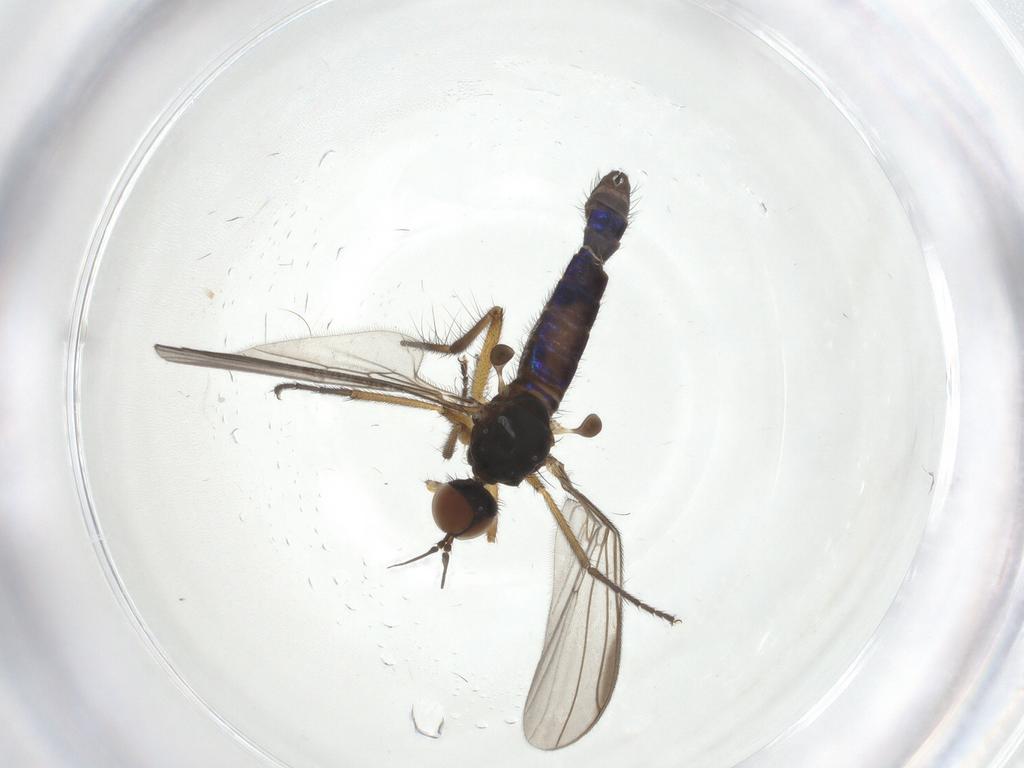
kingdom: Animalia
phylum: Arthropoda
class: Insecta
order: Diptera
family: Empididae
